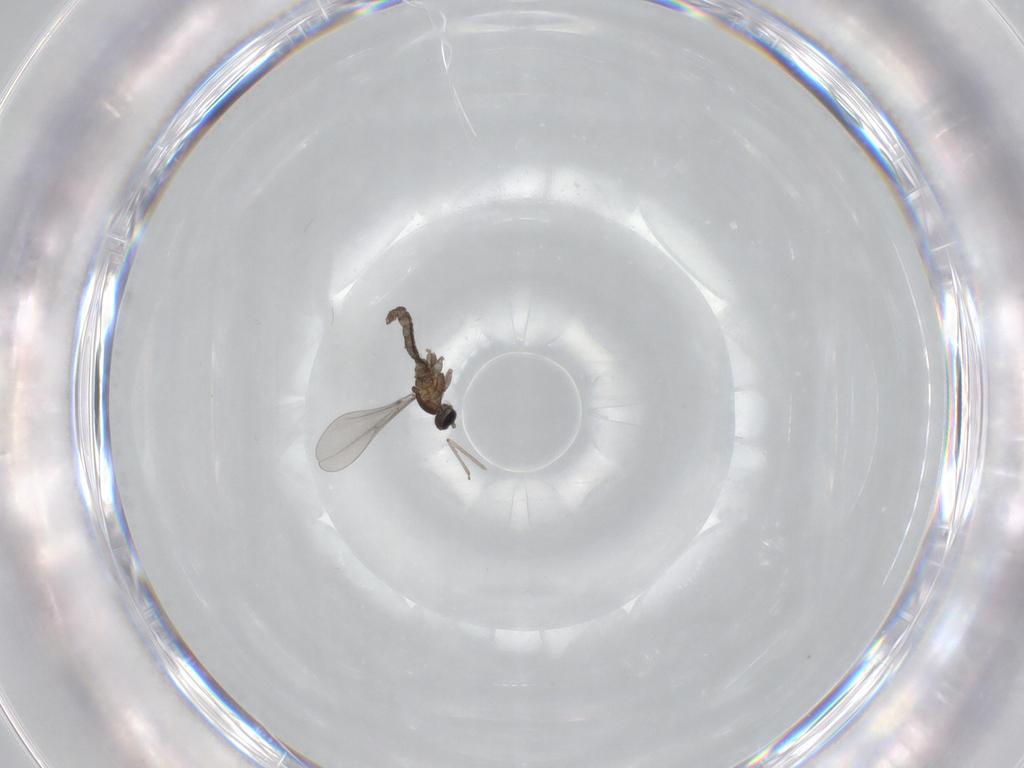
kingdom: Animalia
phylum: Arthropoda
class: Insecta
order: Diptera
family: Cecidomyiidae
